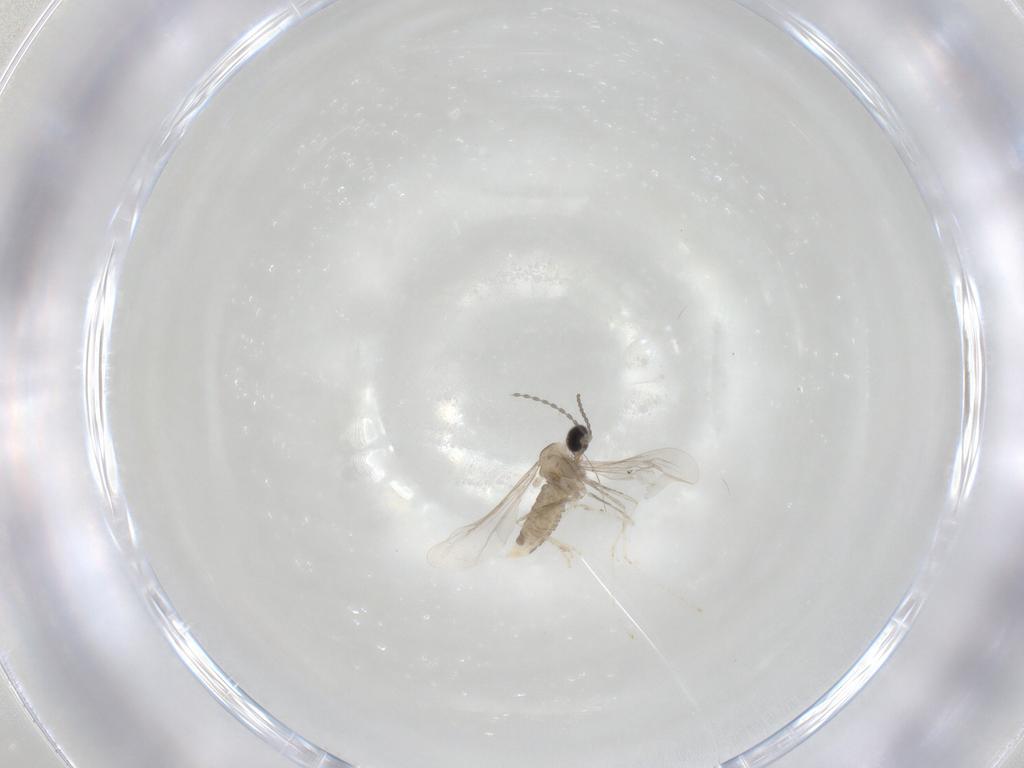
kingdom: Animalia
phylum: Arthropoda
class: Insecta
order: Diptera
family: Cecidomyiidae
